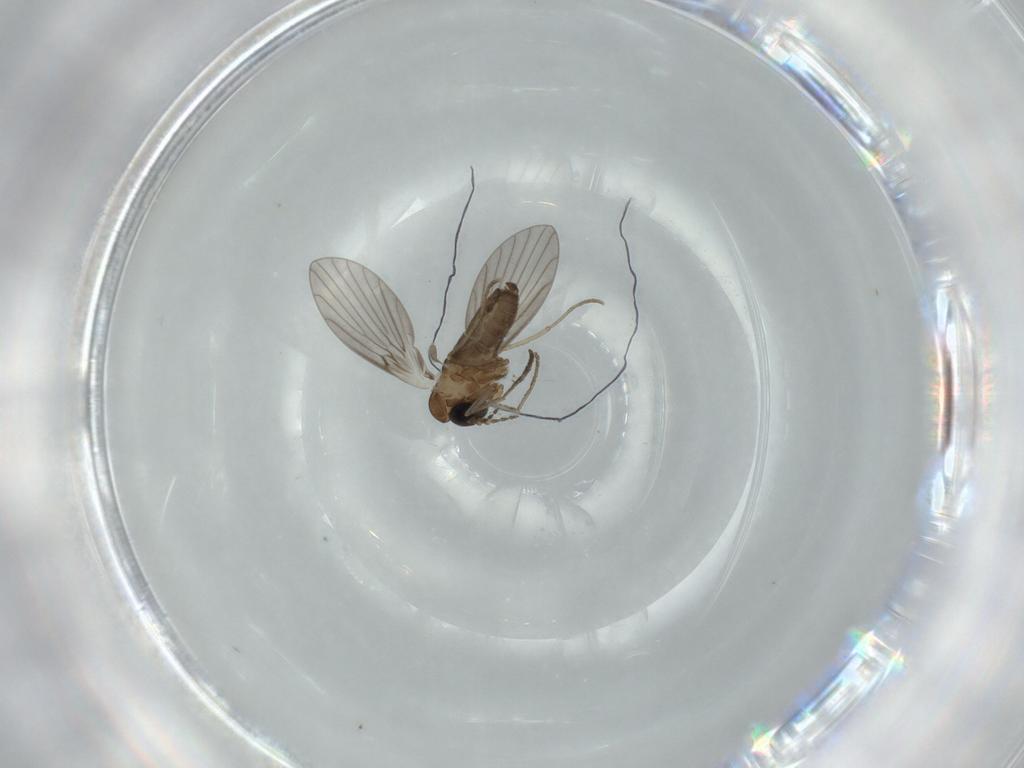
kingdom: Animalia
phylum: Arthropoda
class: Insecta
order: Diptera
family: Psychodidae
